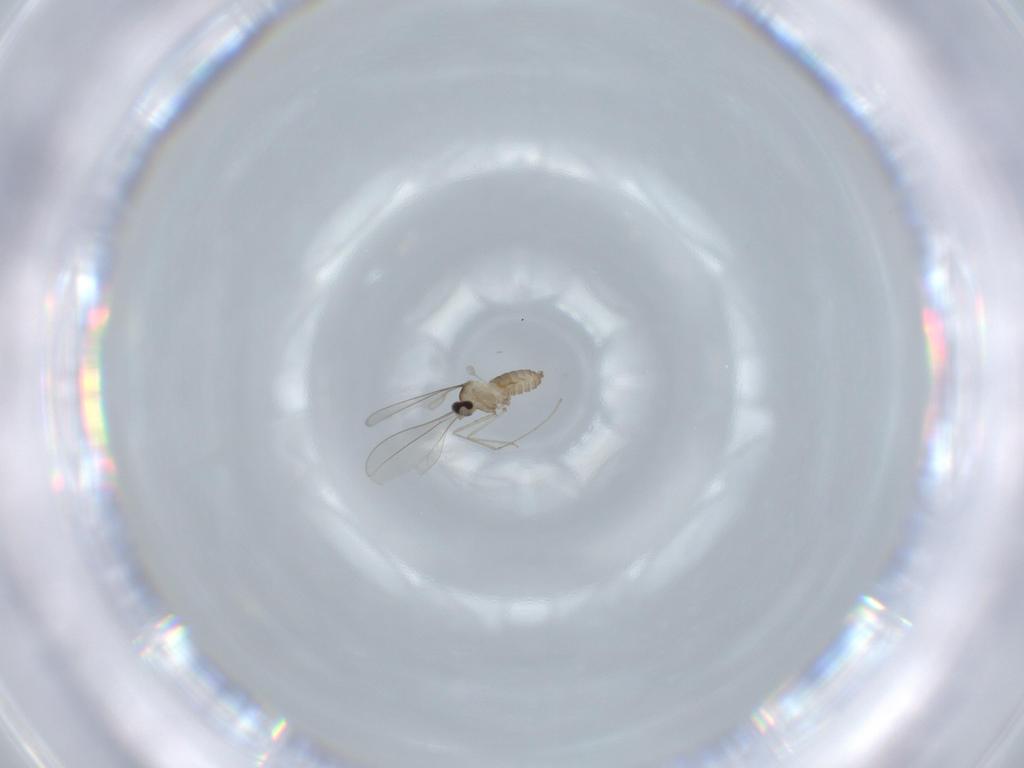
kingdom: Animalia
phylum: Arthropoda
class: Insecta
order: Diptera
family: Cecidomyiidae
